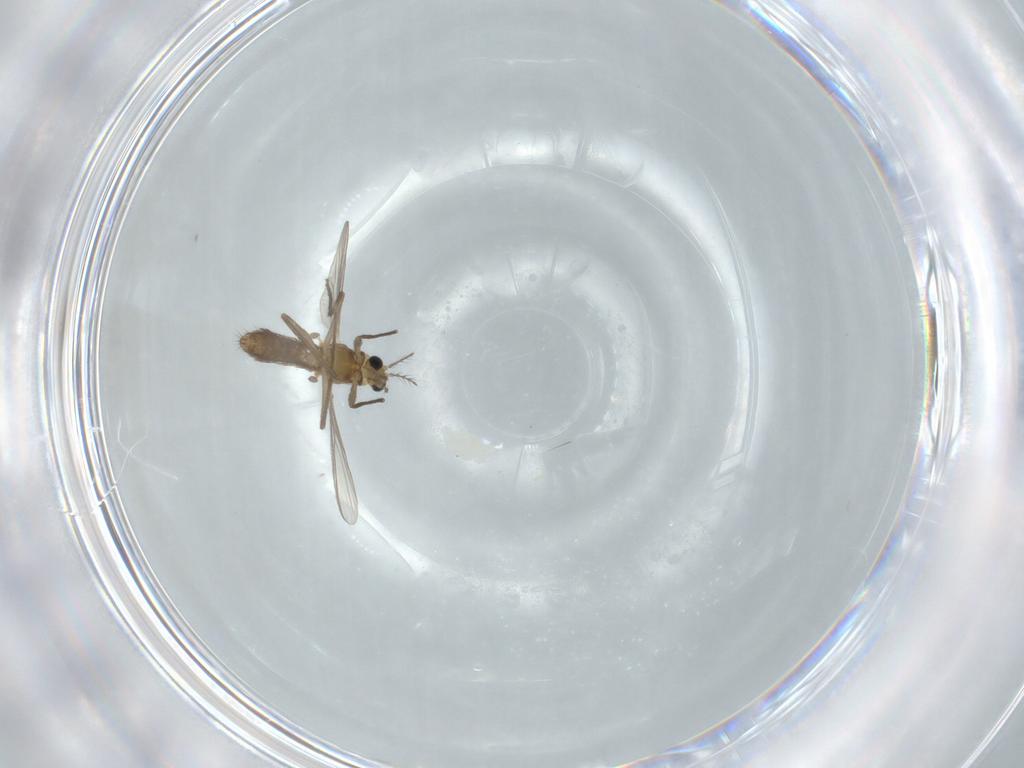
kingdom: Animalia
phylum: Arthropoda
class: Insecta
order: Diptera
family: Chironomidae
